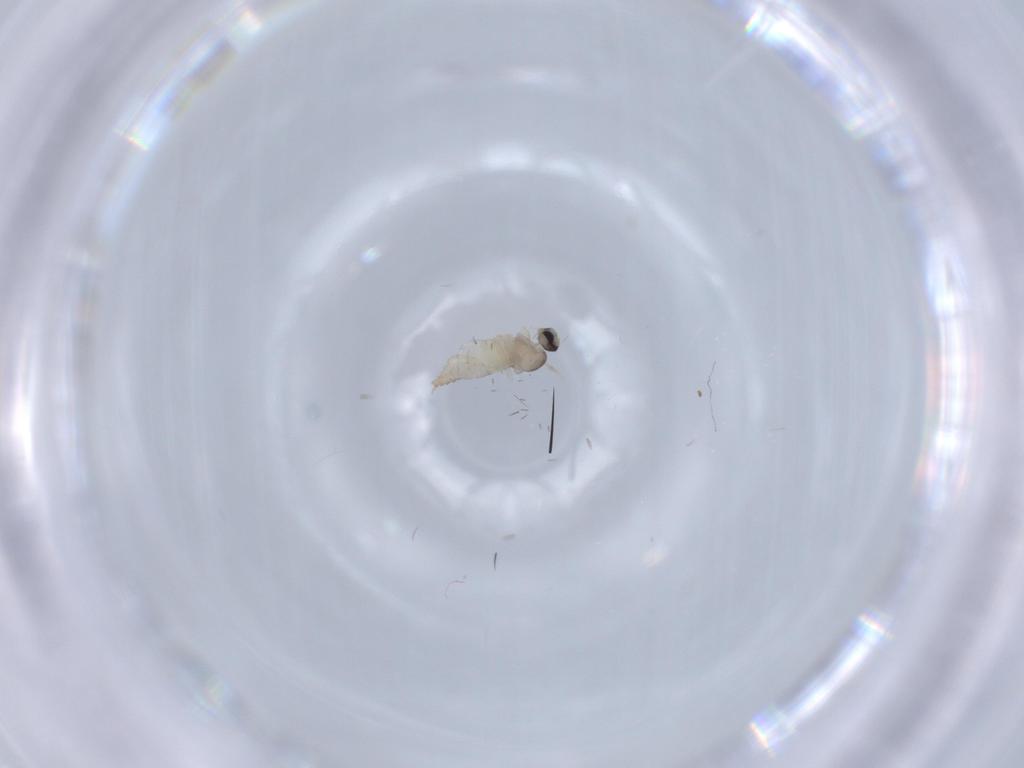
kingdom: Animalia
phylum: Arthropoda
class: Insecta
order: Diptera
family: Cecidomyiidae
